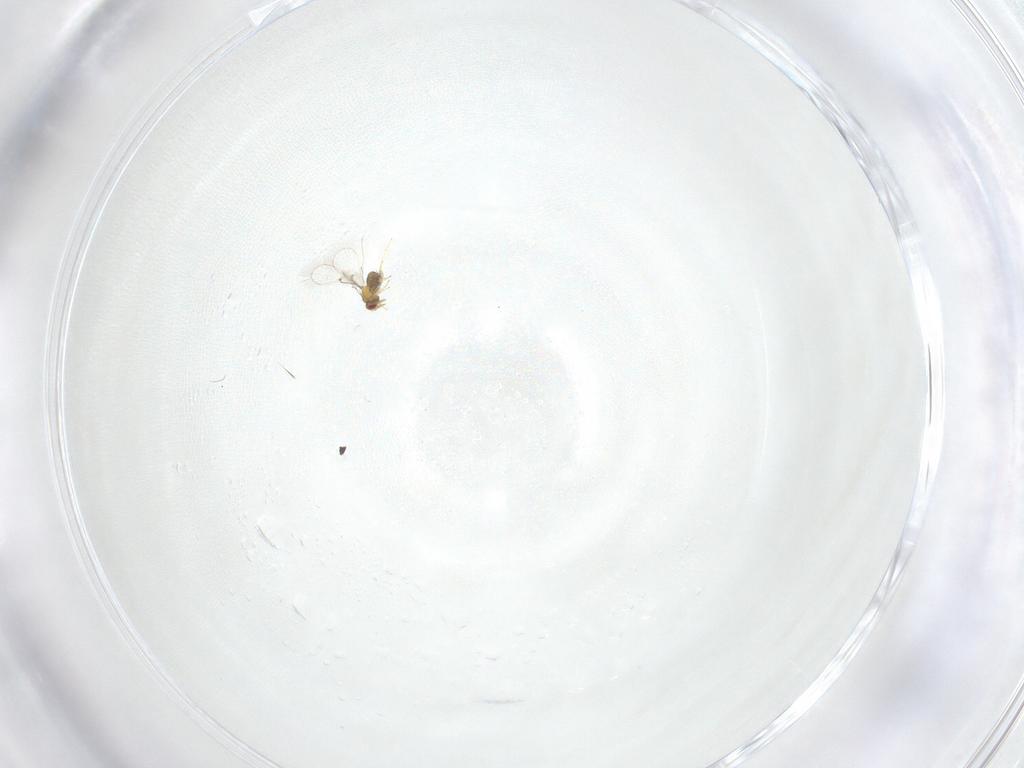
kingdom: Animalia
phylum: Arthropoda
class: Insecta
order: Hymenoptera
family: Trichogrammatidae
